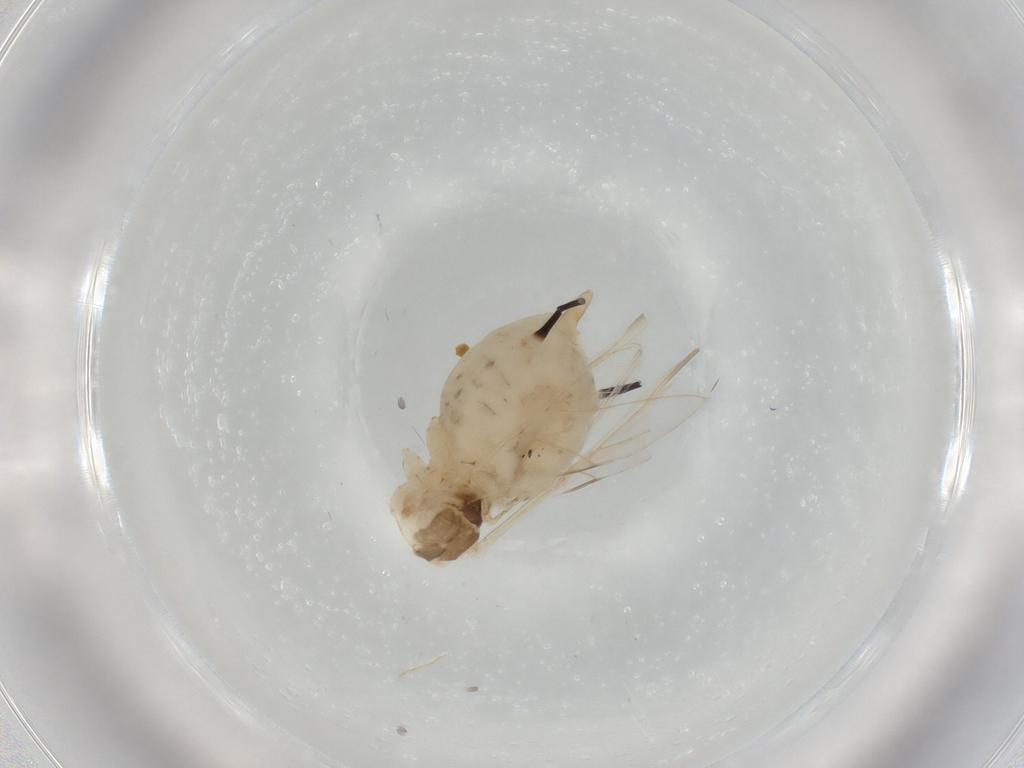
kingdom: Animalia
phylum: Arthropoda
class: Insecta
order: Hemiptera
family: Aphididae
